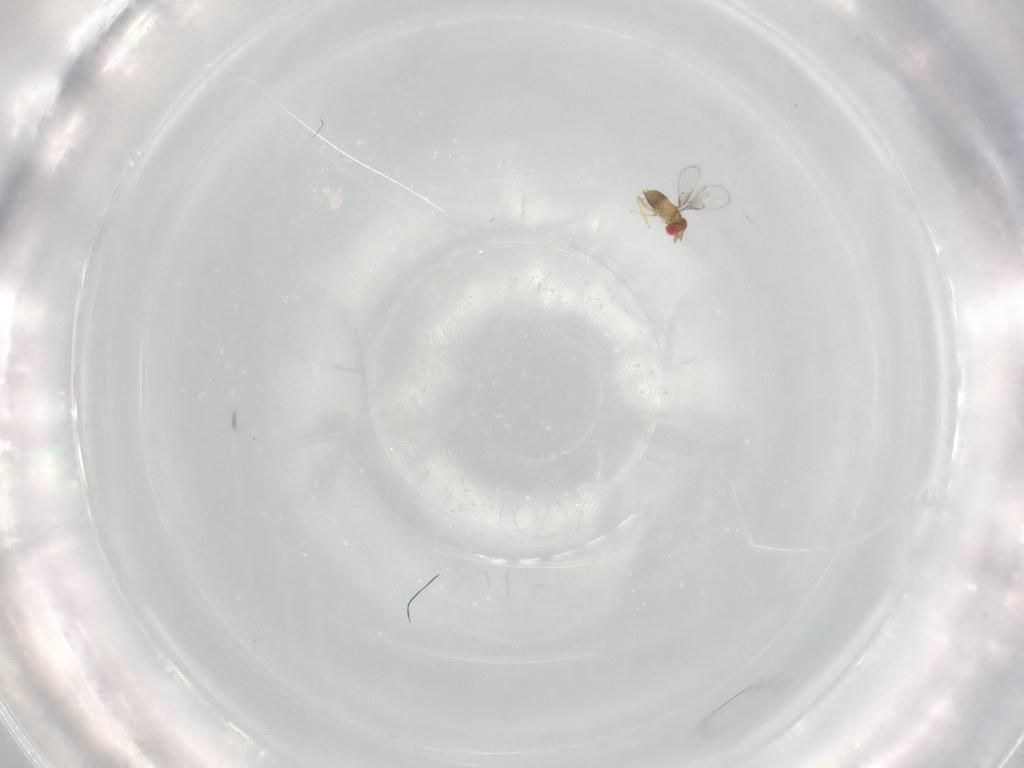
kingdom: Animalia
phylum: Arthropoda
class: Insecta
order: Hymenoptera
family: Trichogrammatidae
